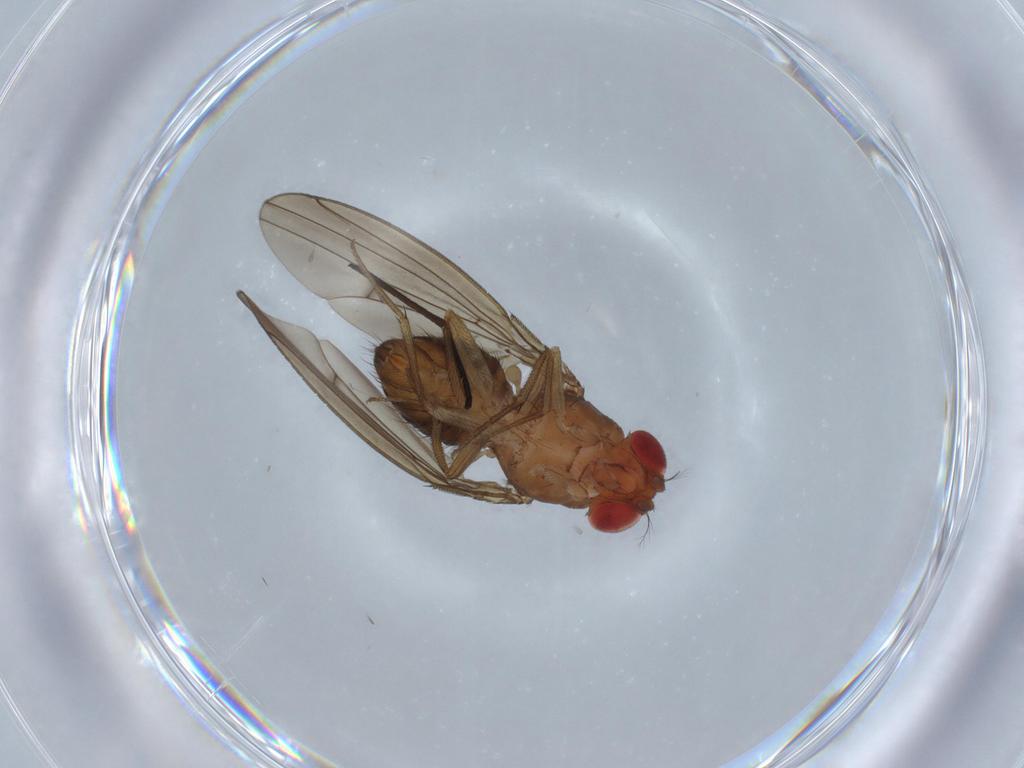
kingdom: Animalia
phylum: Arthropoda
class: Insecta
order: Diptera
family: Drosophilidae
